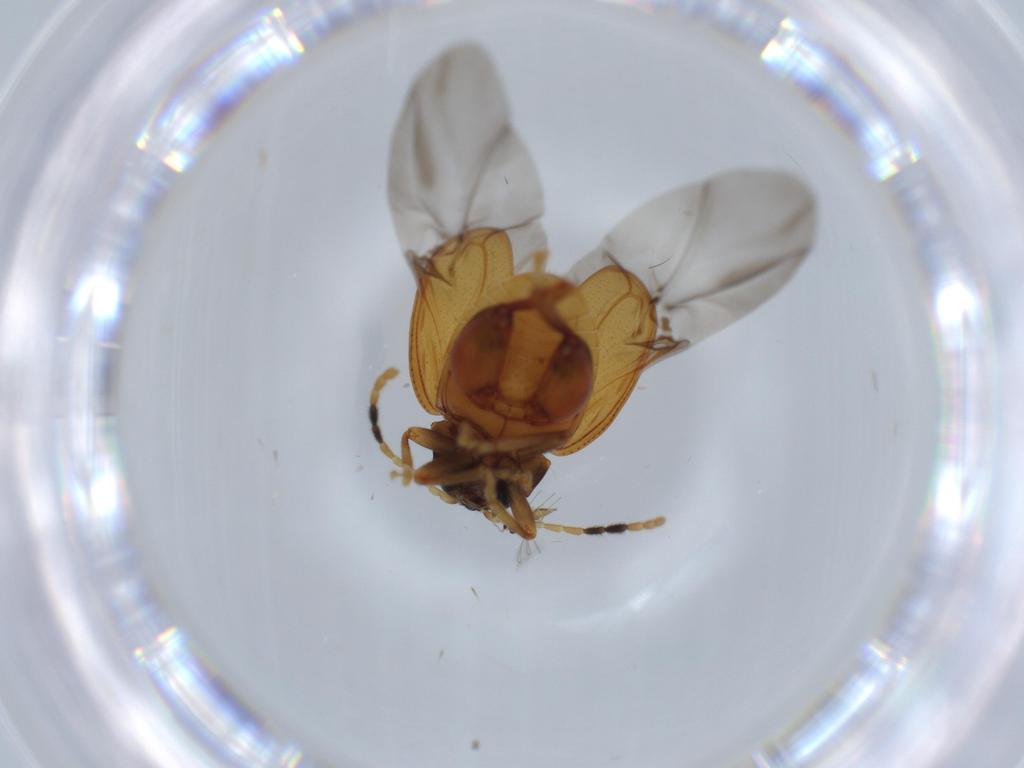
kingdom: Animalia
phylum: Arthropoda
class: Insecta
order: Coleoptera
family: Chrysomelidae
